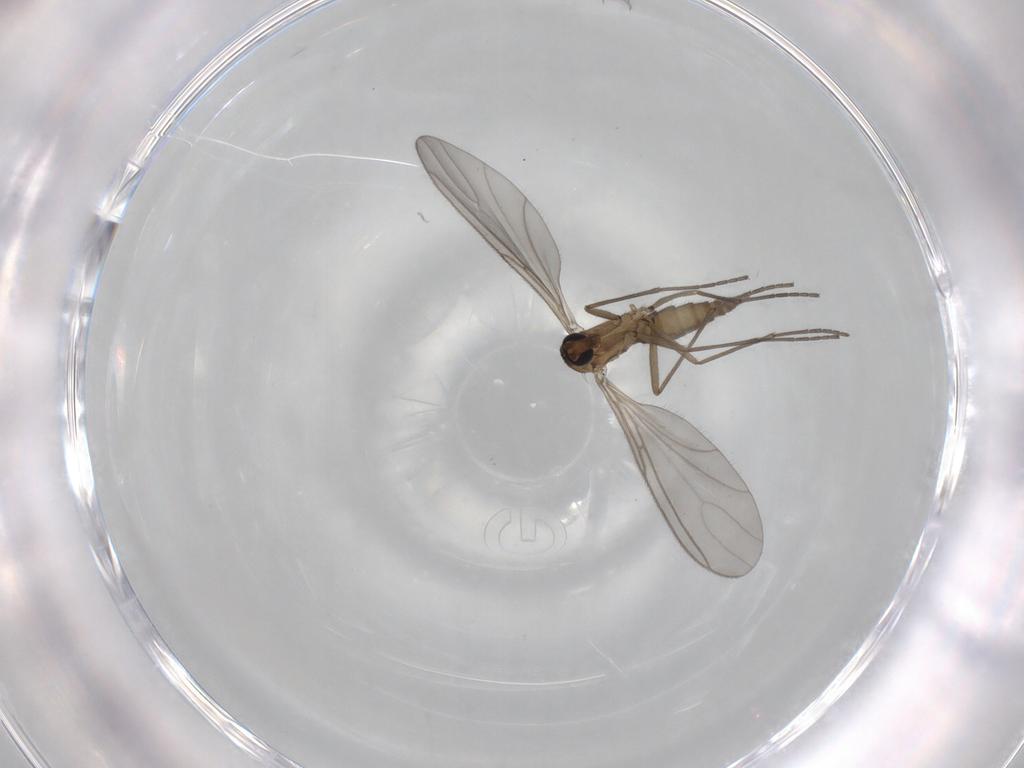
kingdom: Animalia
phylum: Arthropoda
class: Insecta
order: Diptera
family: Sciaridae
